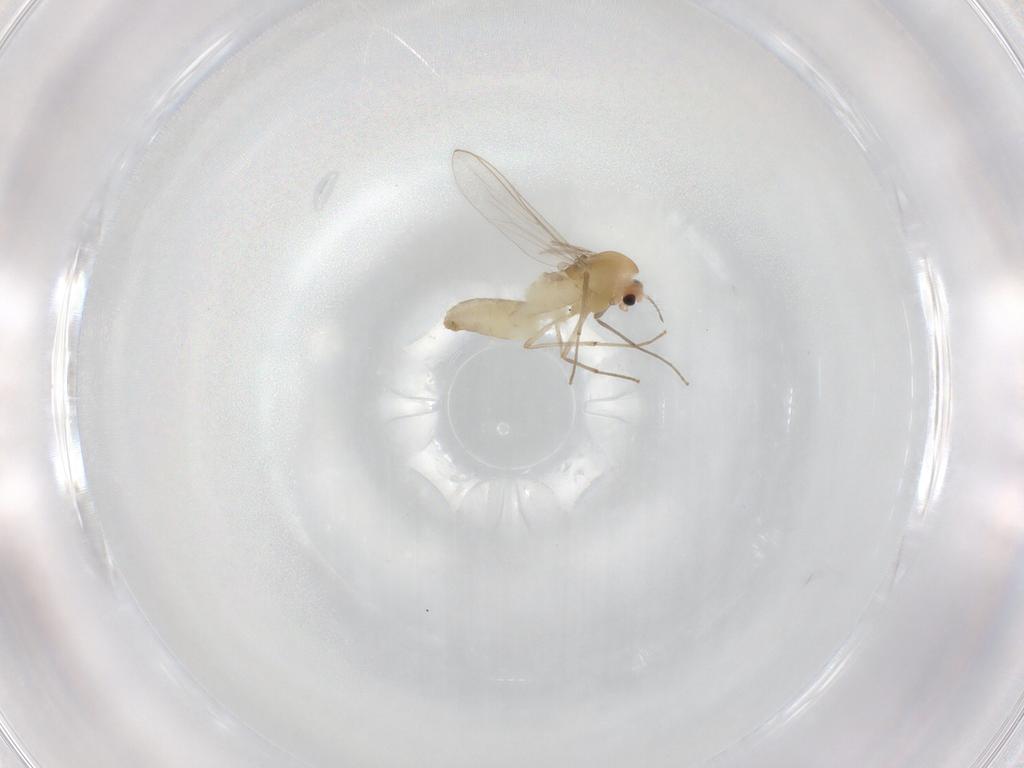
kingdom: Animalia
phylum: Arthropoda
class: Insecta
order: Diptera
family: Chironomidae
